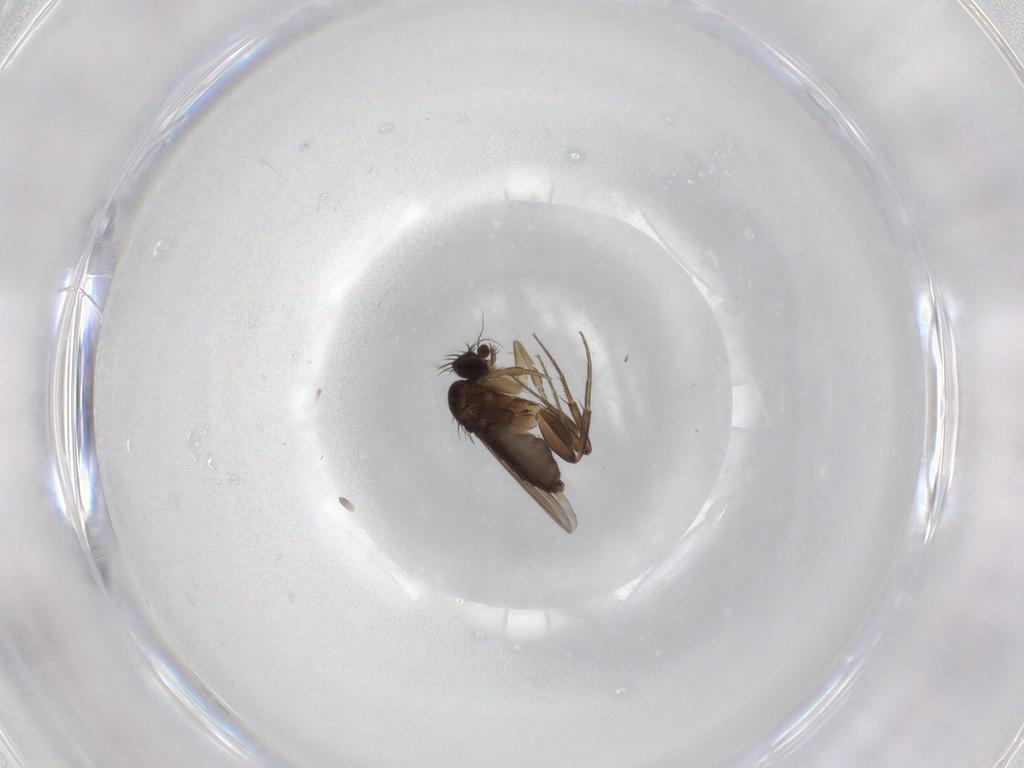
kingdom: Animalia
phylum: Arthropoda
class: Insecta
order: Diptera
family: Phoridae
